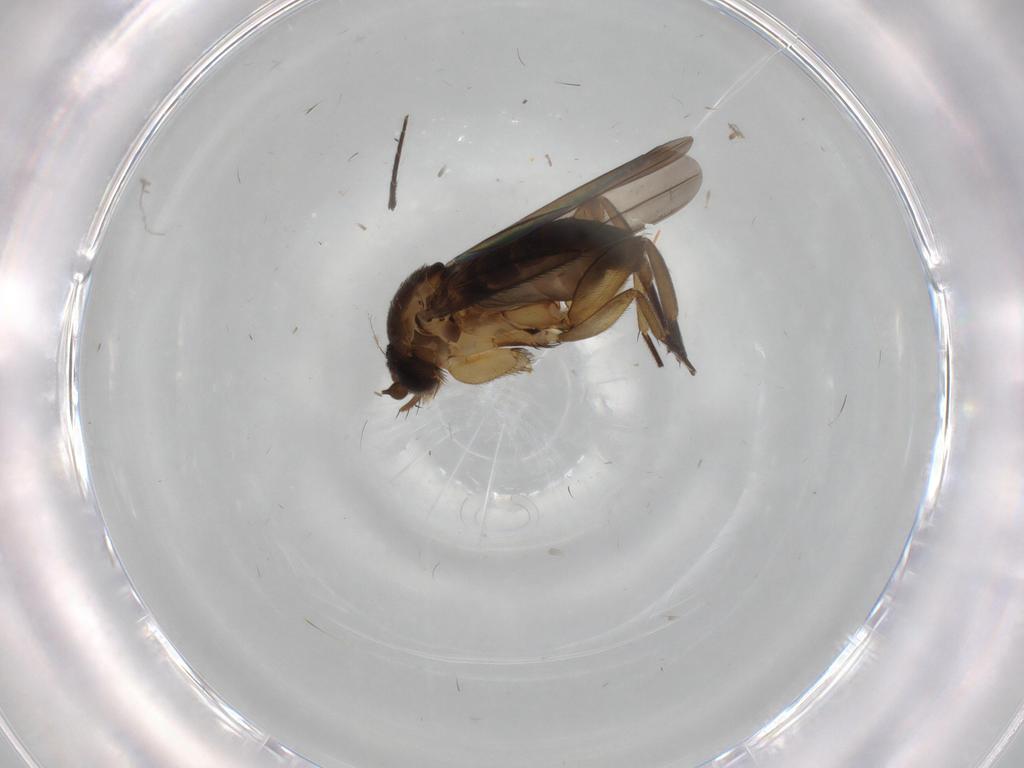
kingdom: Animalia
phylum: Arthropoda
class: Insecta
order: Diptera
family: Phoridae
